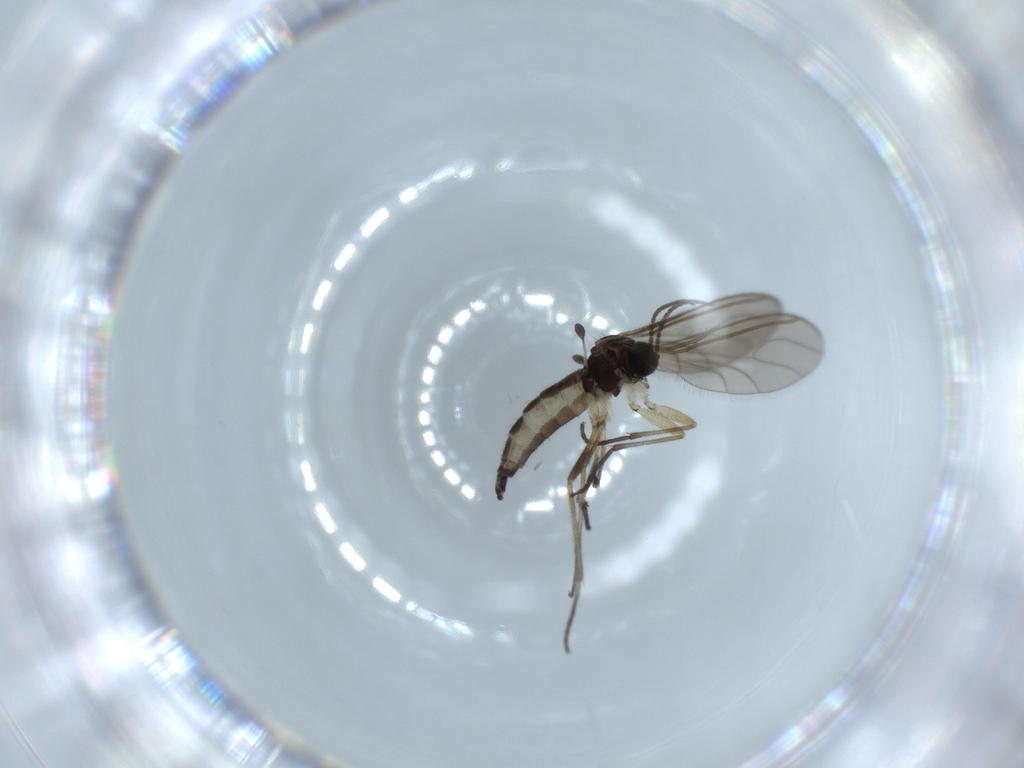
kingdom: Animalia
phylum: Arthropoda
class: Insecta
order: Diptera
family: Sciaridae
